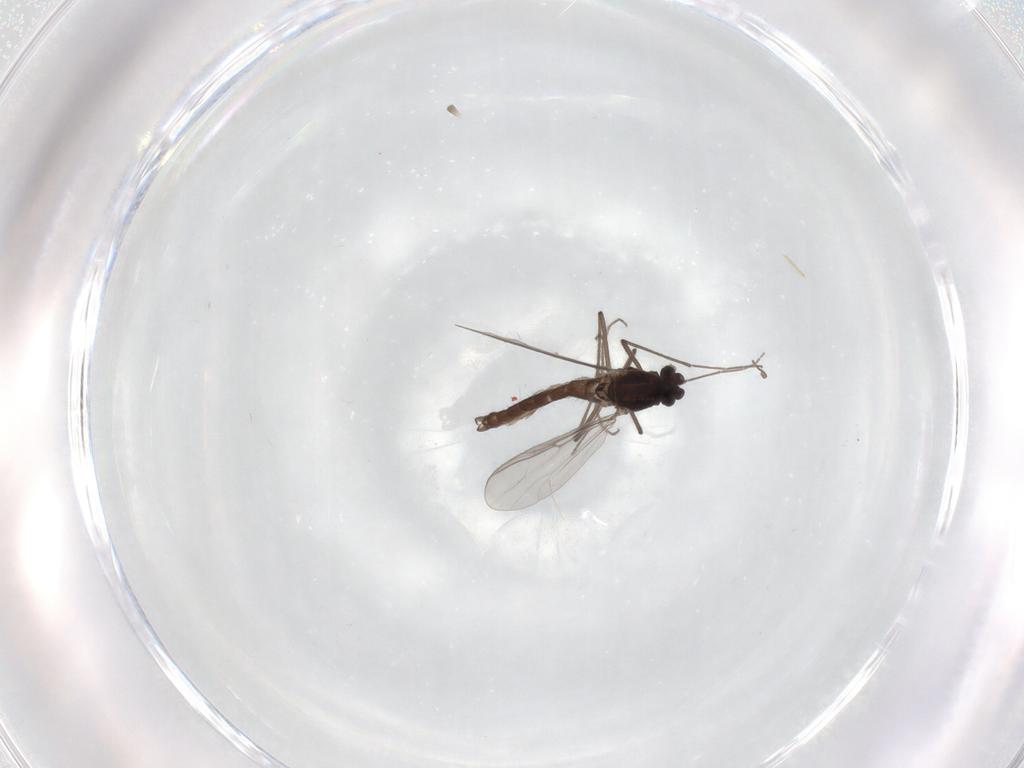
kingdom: Animalia
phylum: Arthropoda
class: Insecta
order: Diptera
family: Chironomidae
